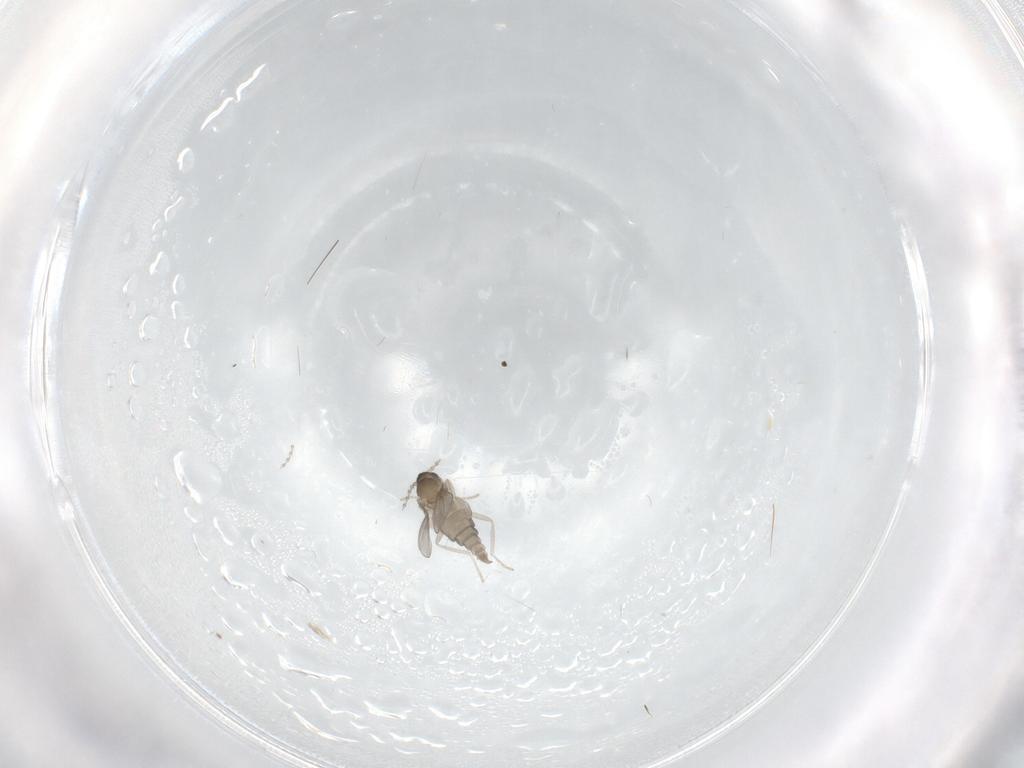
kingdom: Animalia
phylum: Arthropoda
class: Insecta
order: Diptera
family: Cecidomyiidae
